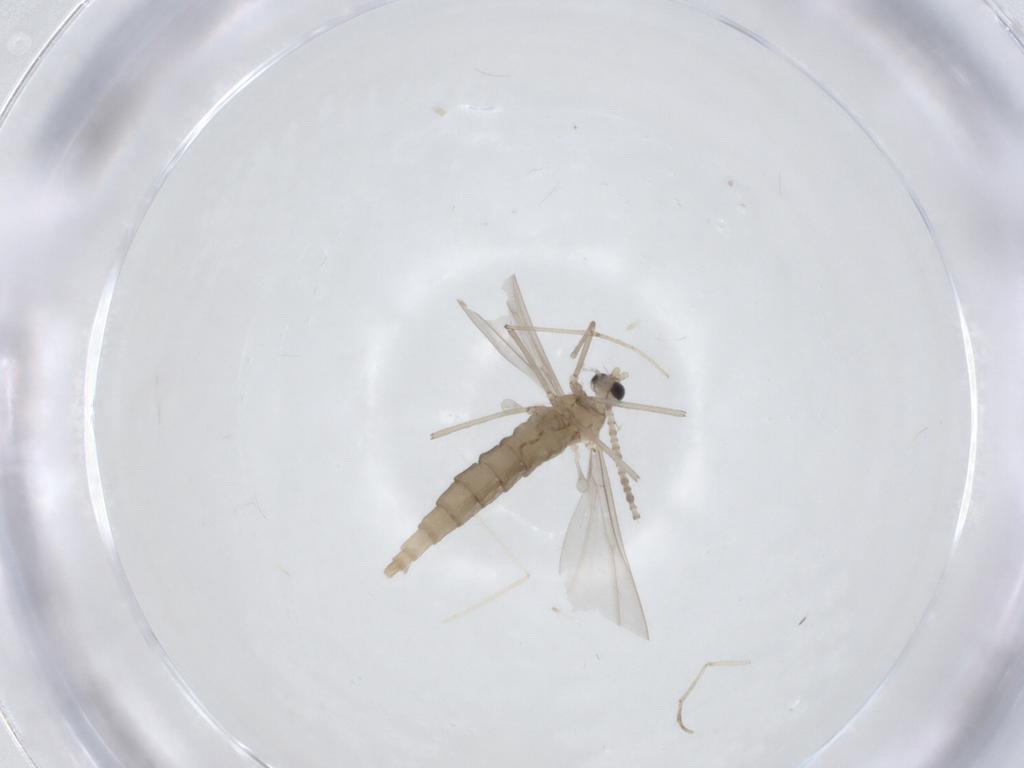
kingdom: Animalia
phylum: Arthropoda
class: Insecta
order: Diptera
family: Cecidomyiidae
